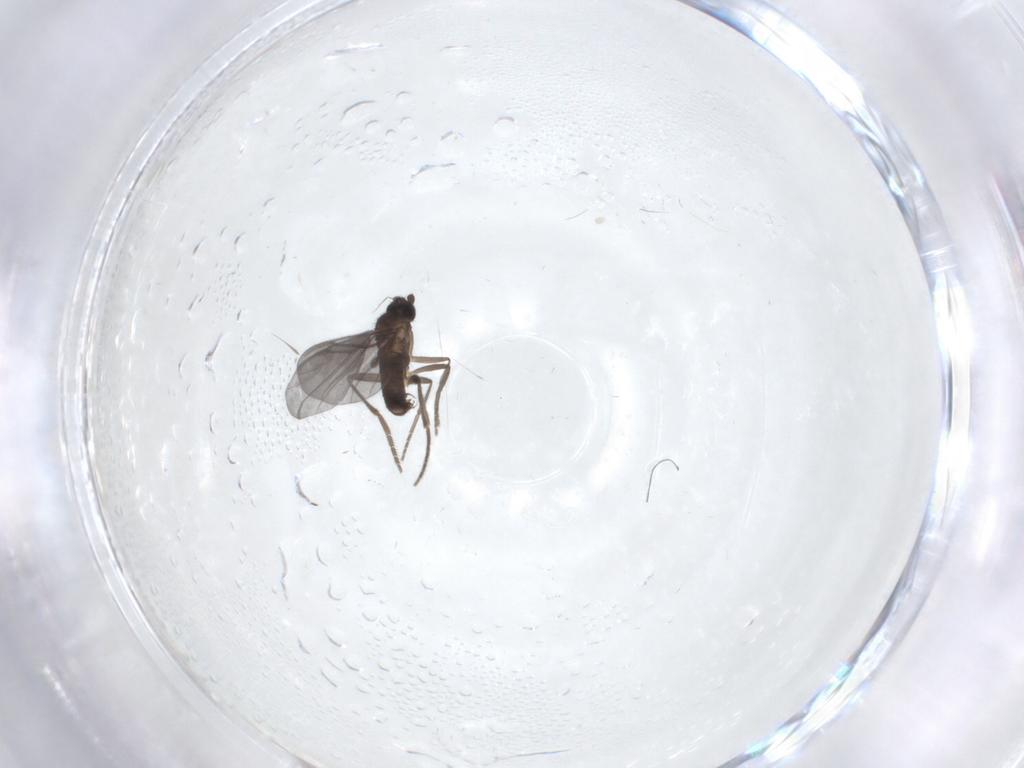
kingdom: Animalia
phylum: Arthropoda
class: Insecta
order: Diptera
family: Phoridae
